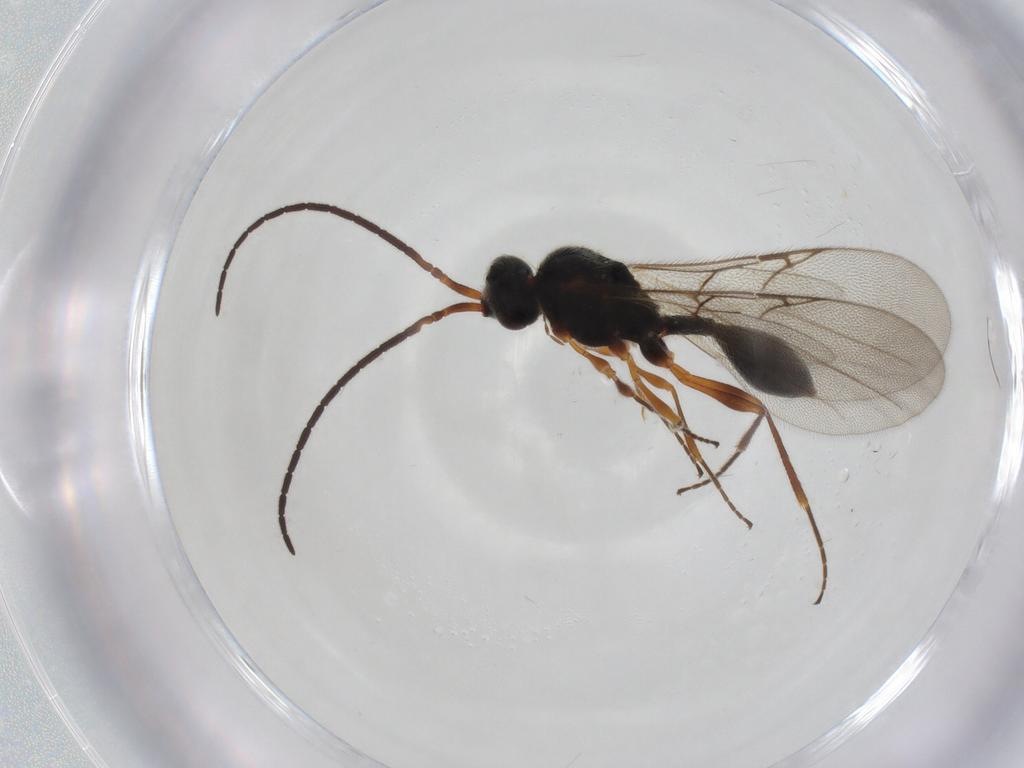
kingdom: Animalia
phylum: Arthropoda
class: Insecta
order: Hymenoptera
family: Diapriidae
